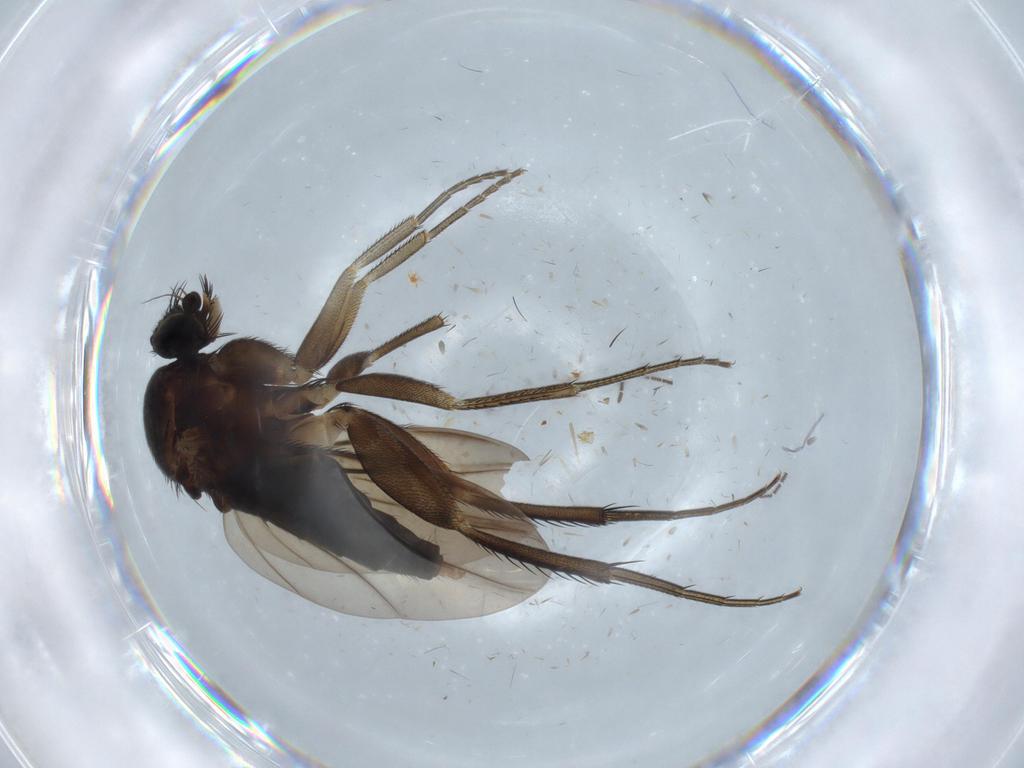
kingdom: Animalia
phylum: Arthropoda
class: Insecta
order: Diptera
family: Phoridae
